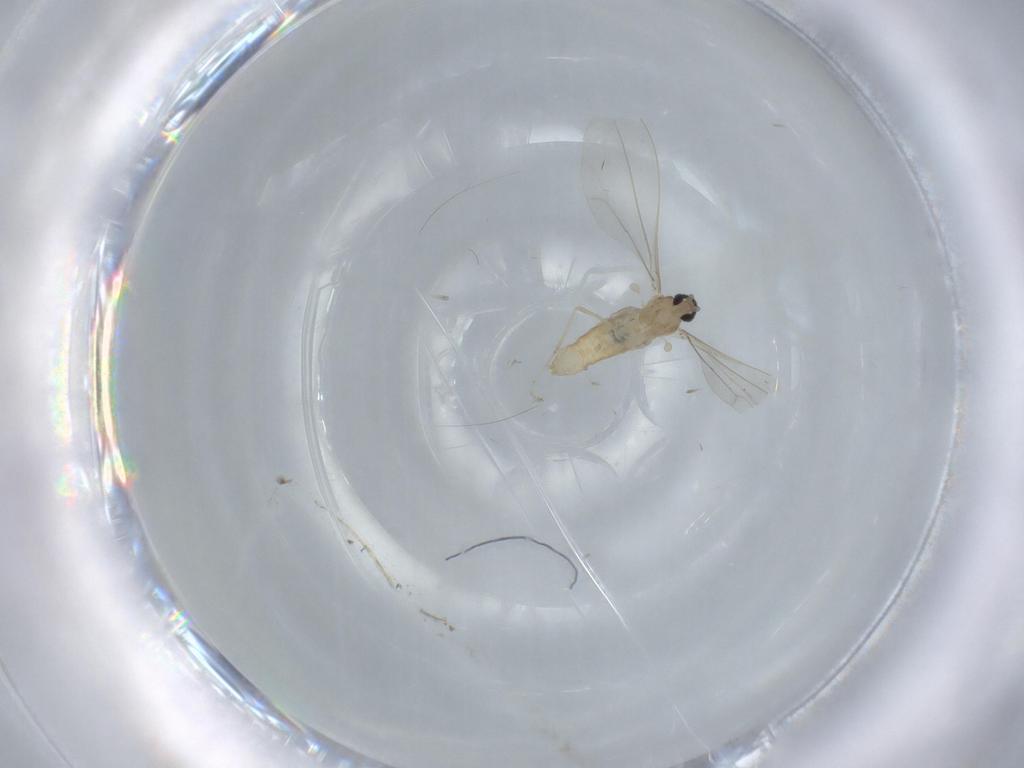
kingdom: Animalia
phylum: Arthropoda
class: Insecta
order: Diptera
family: Cecidomyiidae
